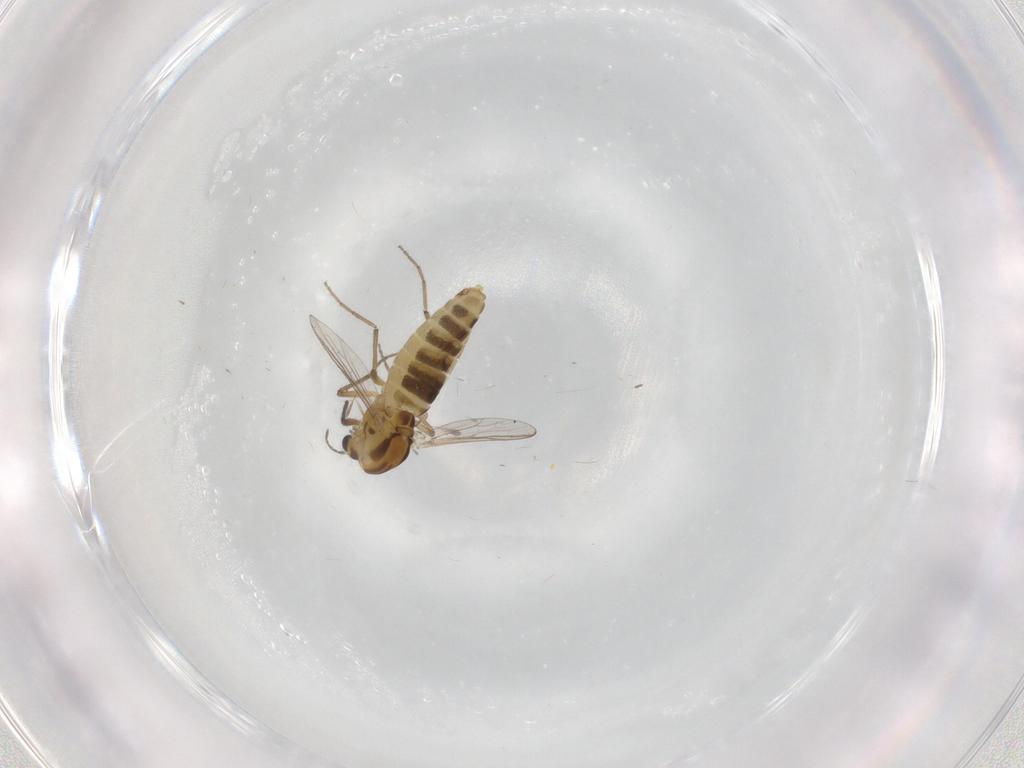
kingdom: Animalia
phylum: Arthropoda
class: Insecta
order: Diptera
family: Chironomidae
